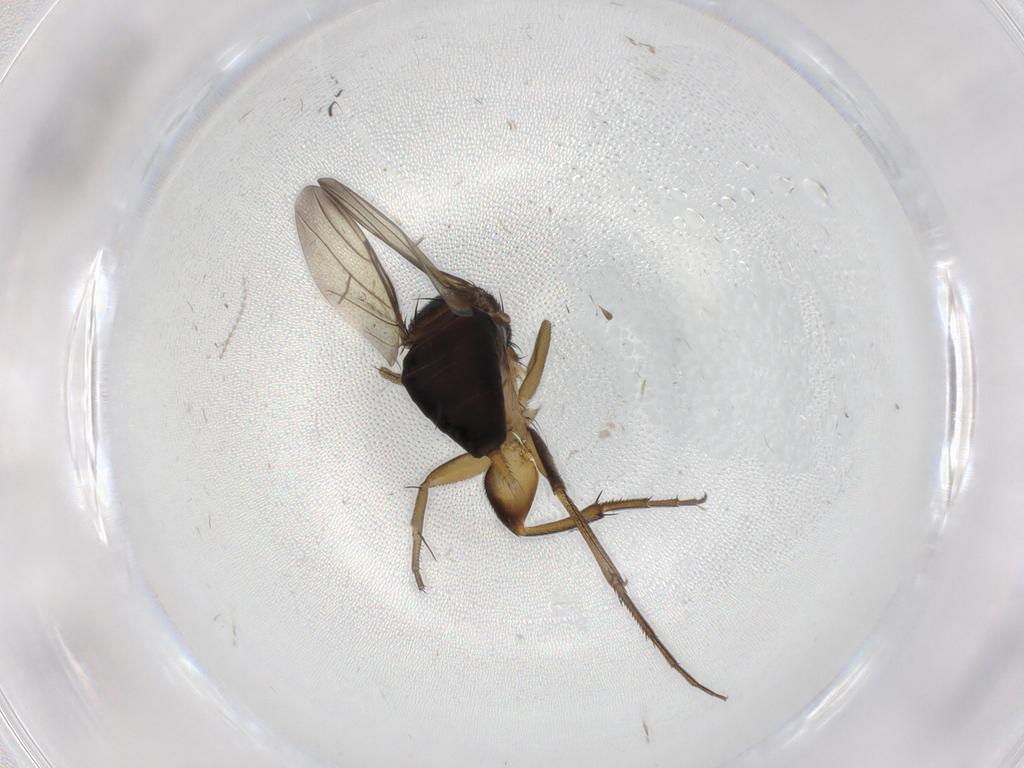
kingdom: Animalia
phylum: Arthropoda
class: Insecta
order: Diptera
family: Phoridae
